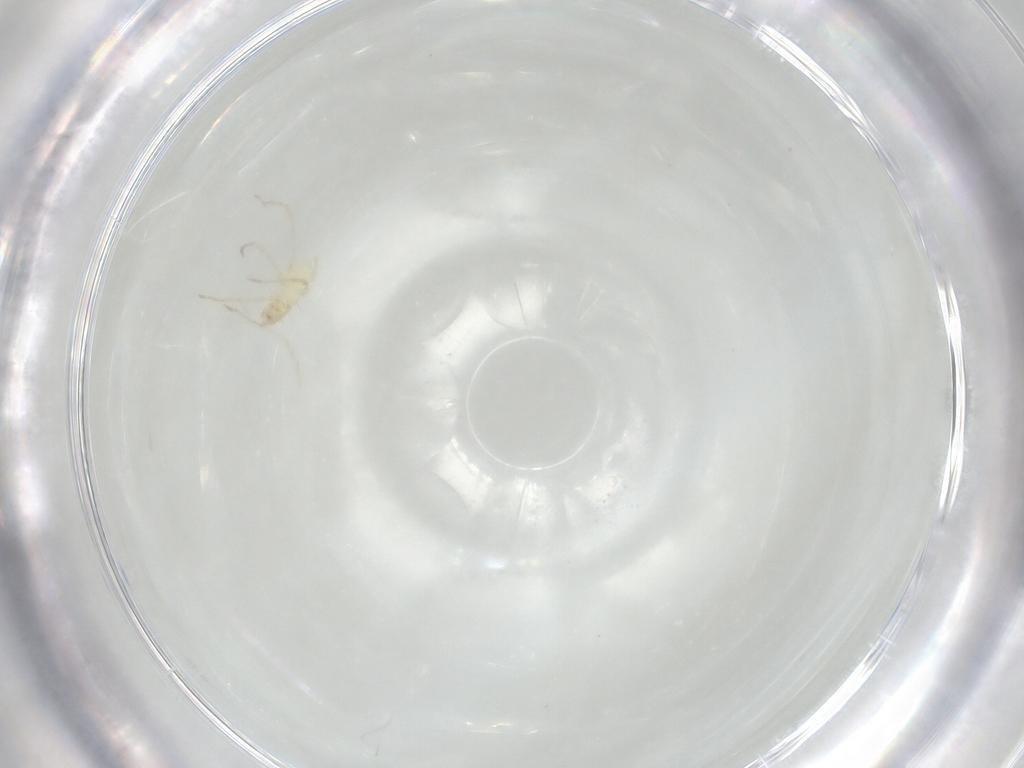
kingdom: Animalia
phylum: Arthropoda
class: Arachnida
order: Trombidiformes
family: Erythraeidae
